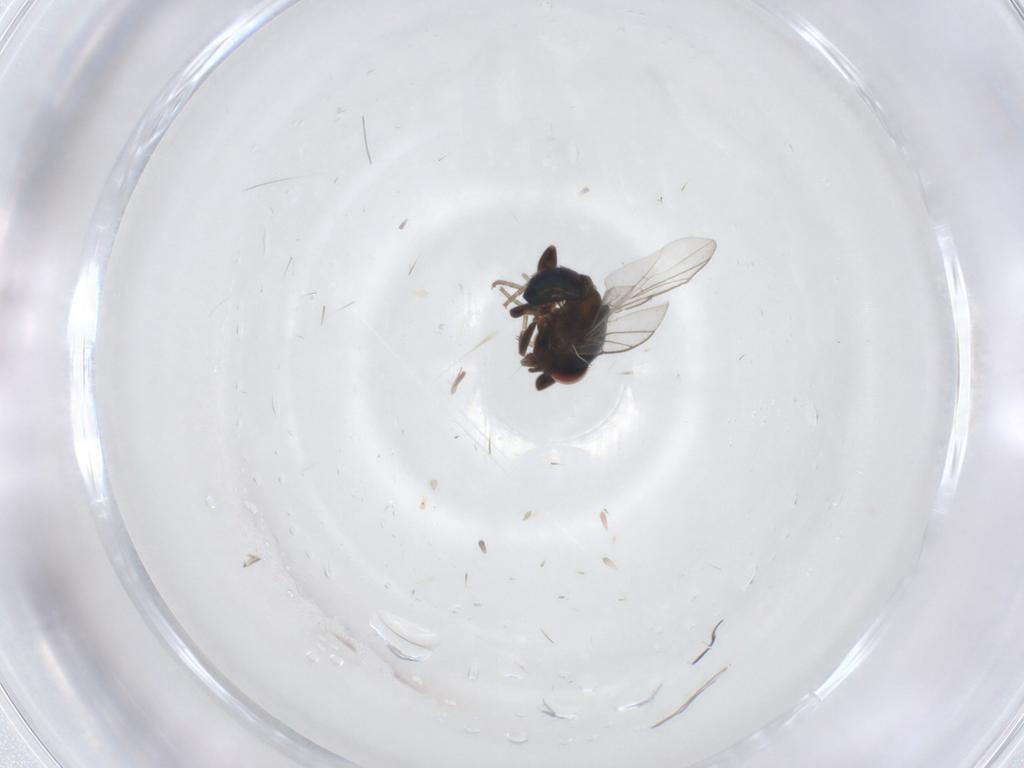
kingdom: Animalia
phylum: Arthropoda
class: Insecta
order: Diptera
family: Cryptochetidae
